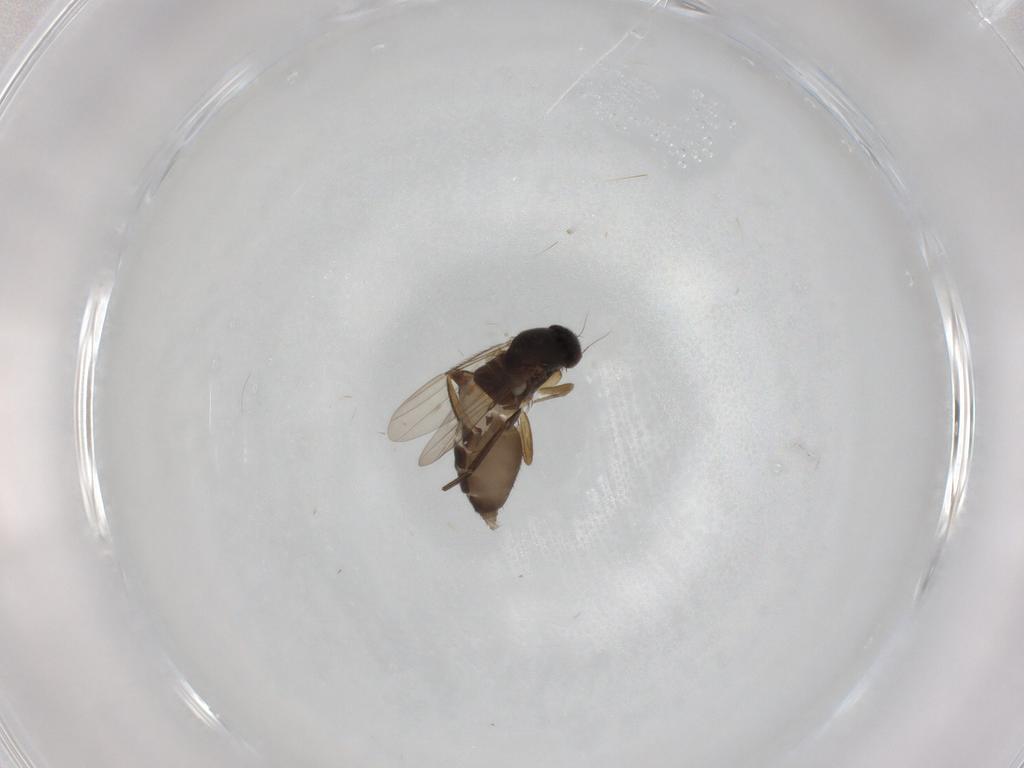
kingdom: Animalia
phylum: Arthropoda
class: Insecta
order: Diptera
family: Phoridae
